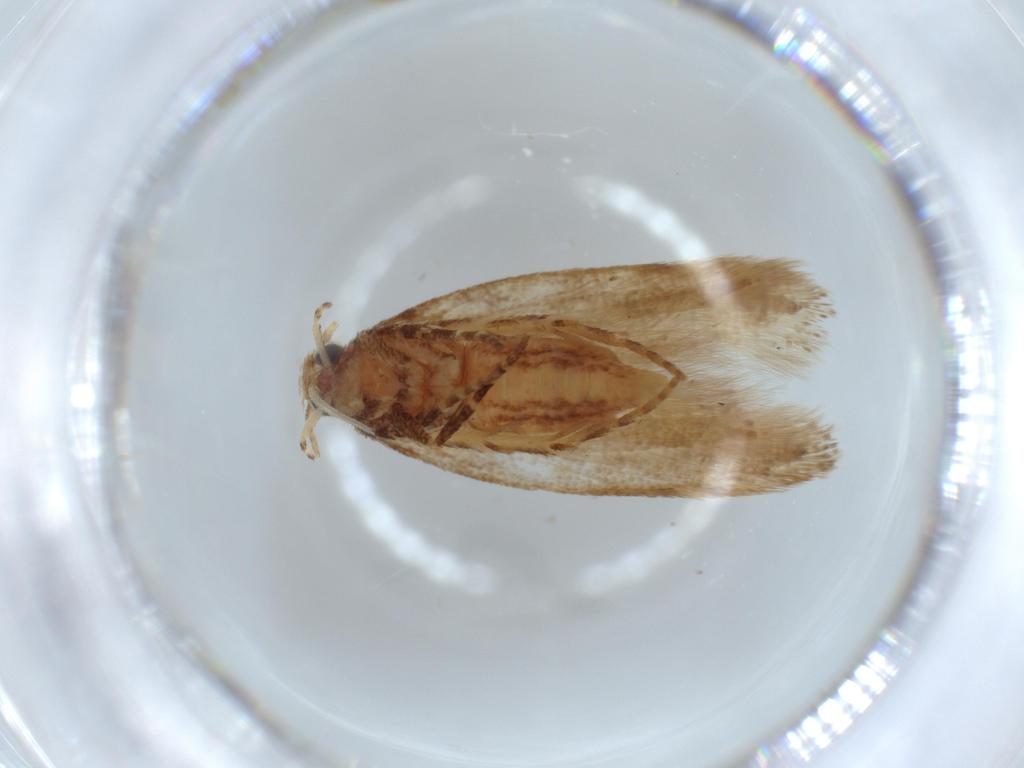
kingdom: Animalia
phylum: Arthropoda
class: Insecta
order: Lepidoptera
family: Gelechiidae
